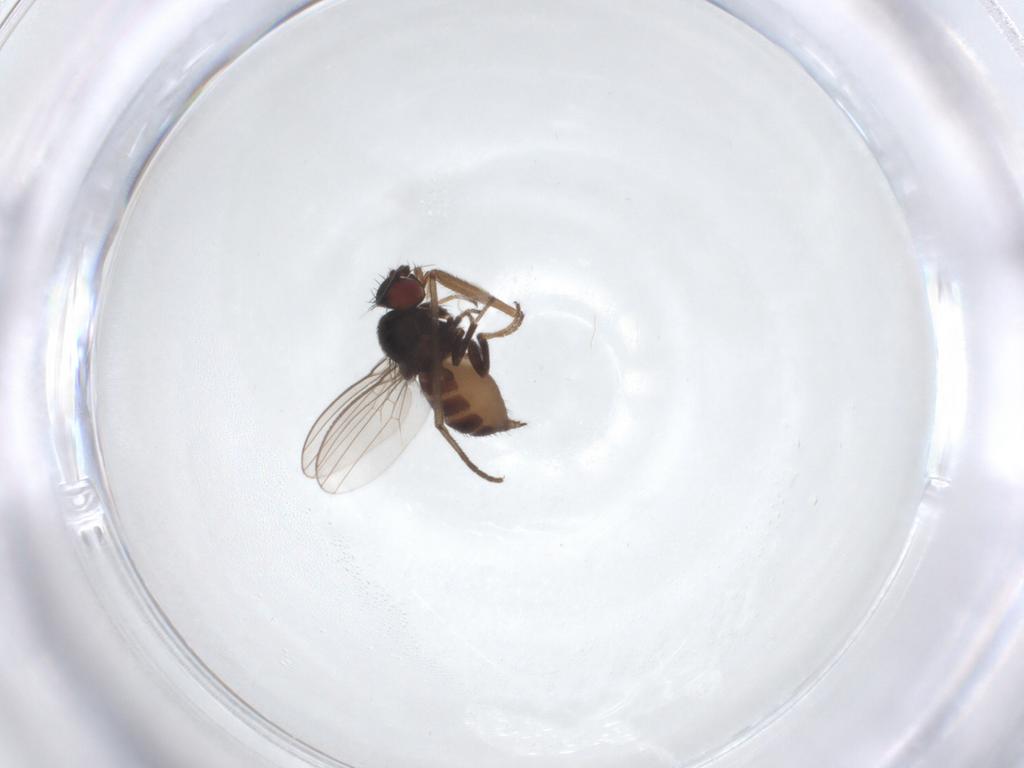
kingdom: Animalia
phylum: Arthropoda
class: Insecta
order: Diptera
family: Milichiidae
